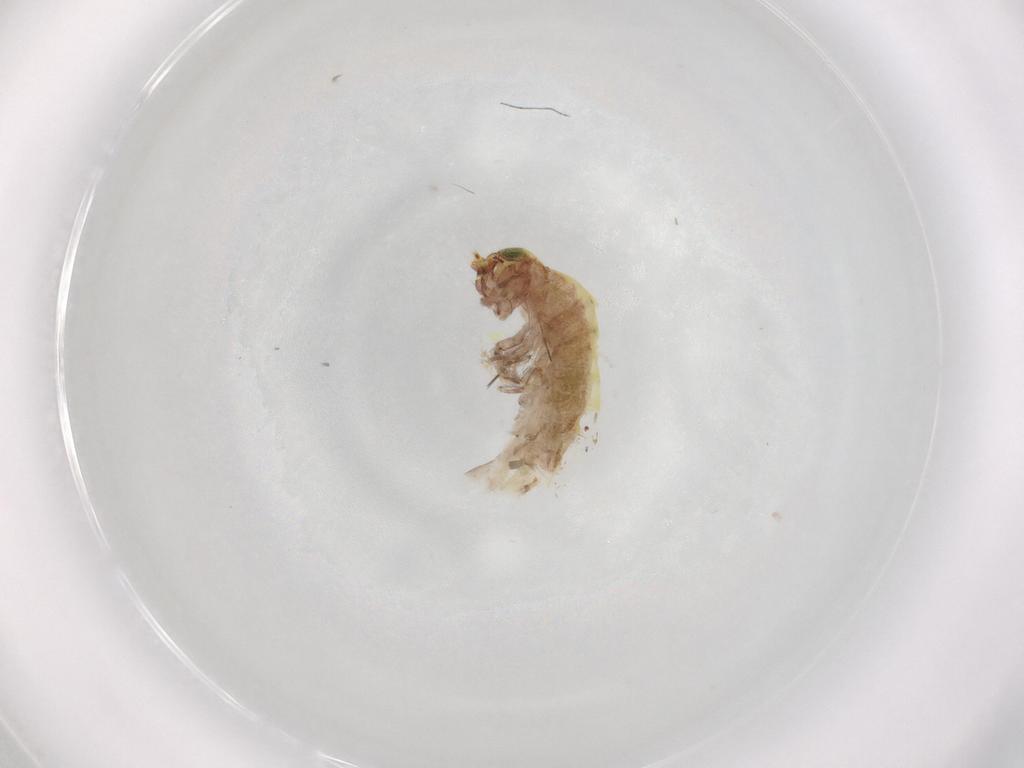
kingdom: Animalia
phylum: Arthropoda
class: Insecta
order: Archaeognatha
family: Machilidae
